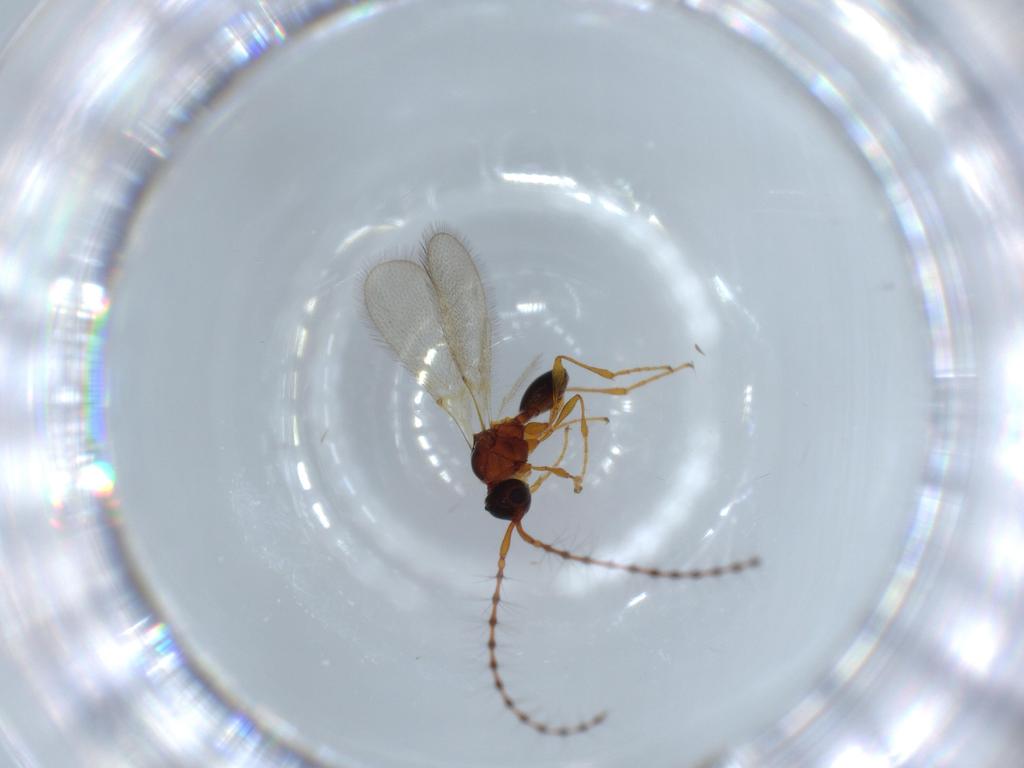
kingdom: Animalia
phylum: Arthropoda
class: Insecta
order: Hymenoptera
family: Diapriidae
